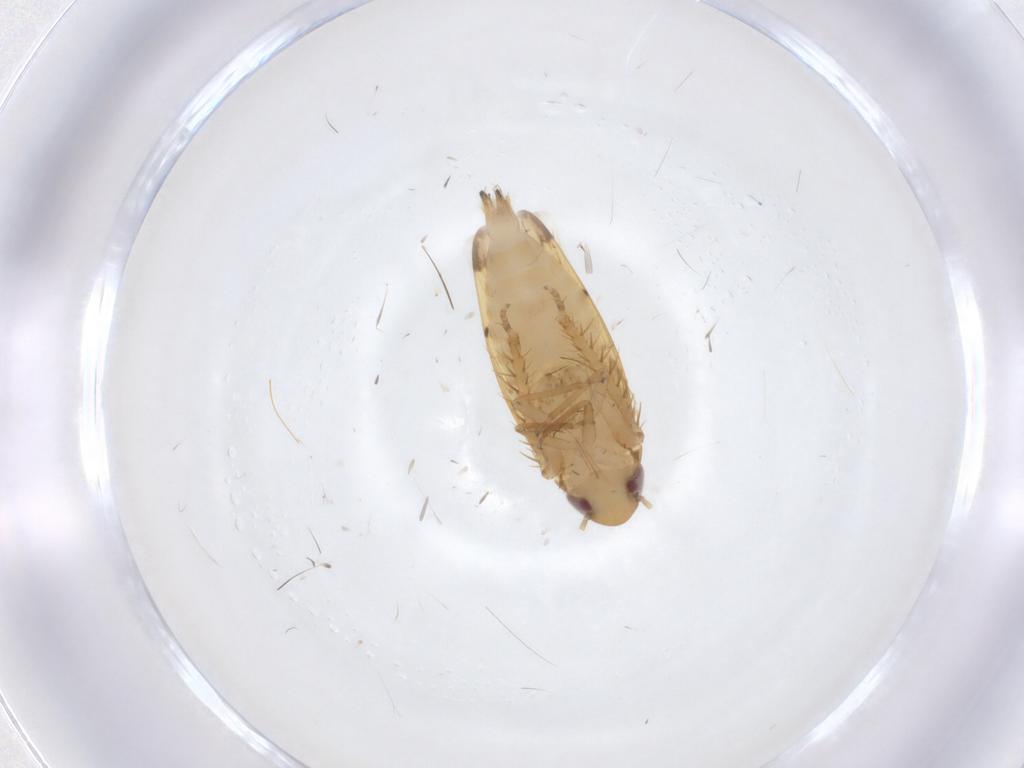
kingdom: Animalia
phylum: Arthropoda
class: Insecta
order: Hemiptera
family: Cicadellidae
